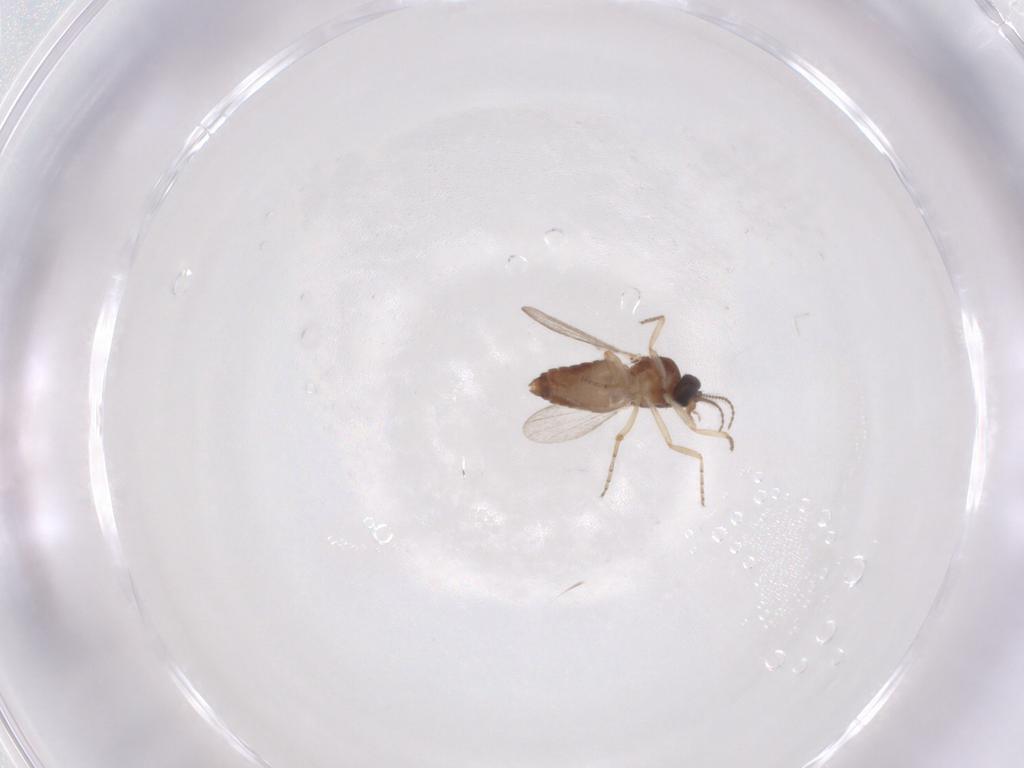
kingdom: Animalia
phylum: Arthropoda
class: Insecta
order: Diptera
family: Ceratopogonidae
